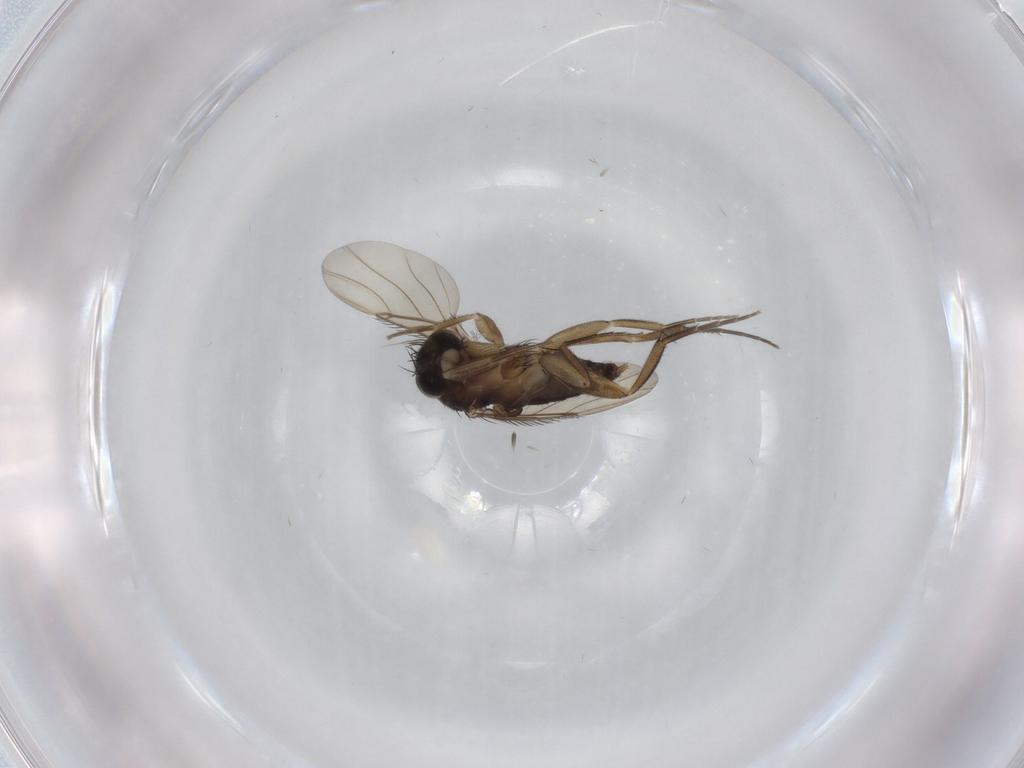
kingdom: Animalia
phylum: Arthropoda
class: Insecta
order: Diptera
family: Phoridae
